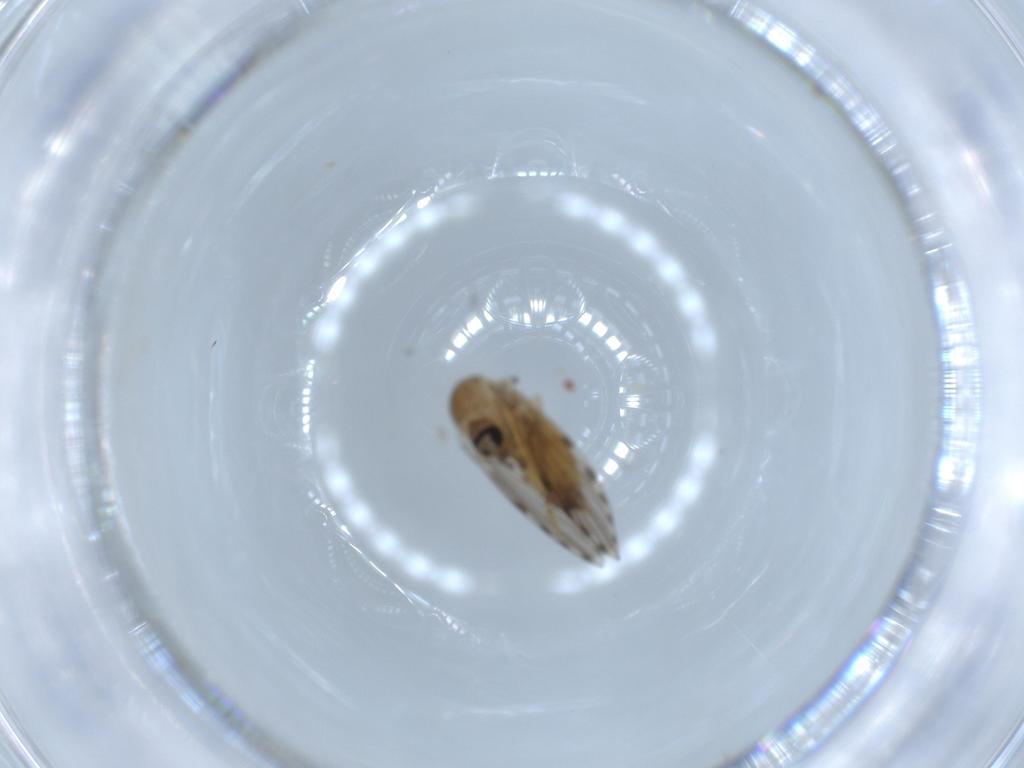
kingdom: Animalia
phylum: Arthropoda
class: Insecta
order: Diptera
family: Psychodidae
